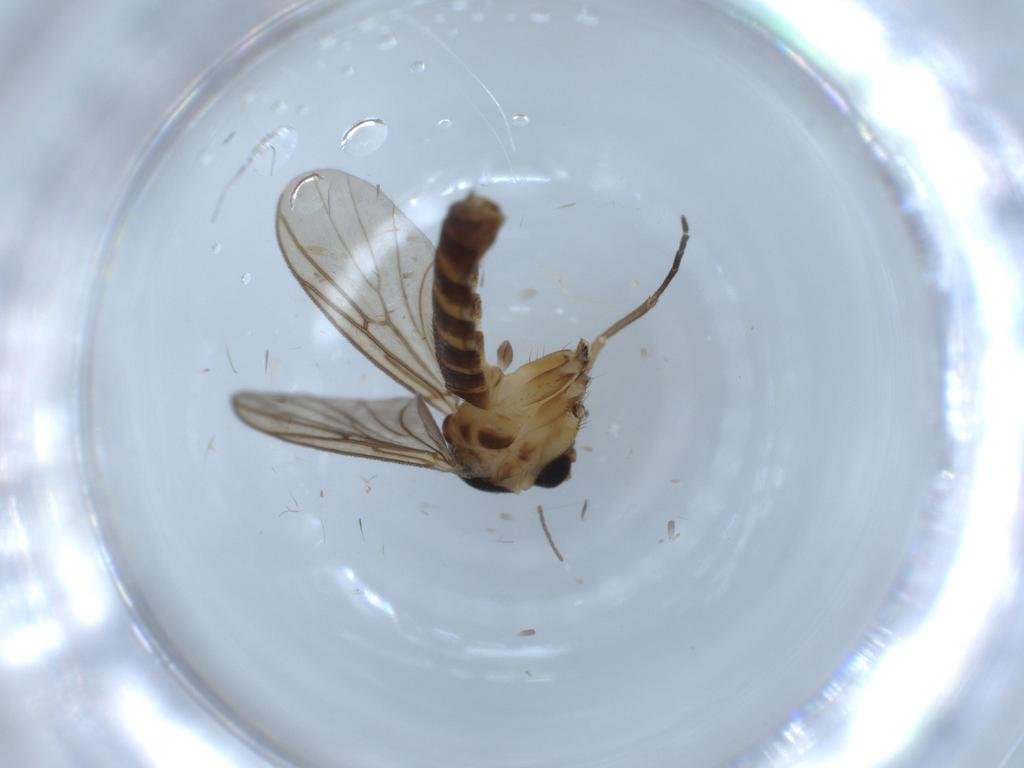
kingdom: Animalia
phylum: Arthropoda
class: Insecta
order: Diptera
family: Mycetophilidae
